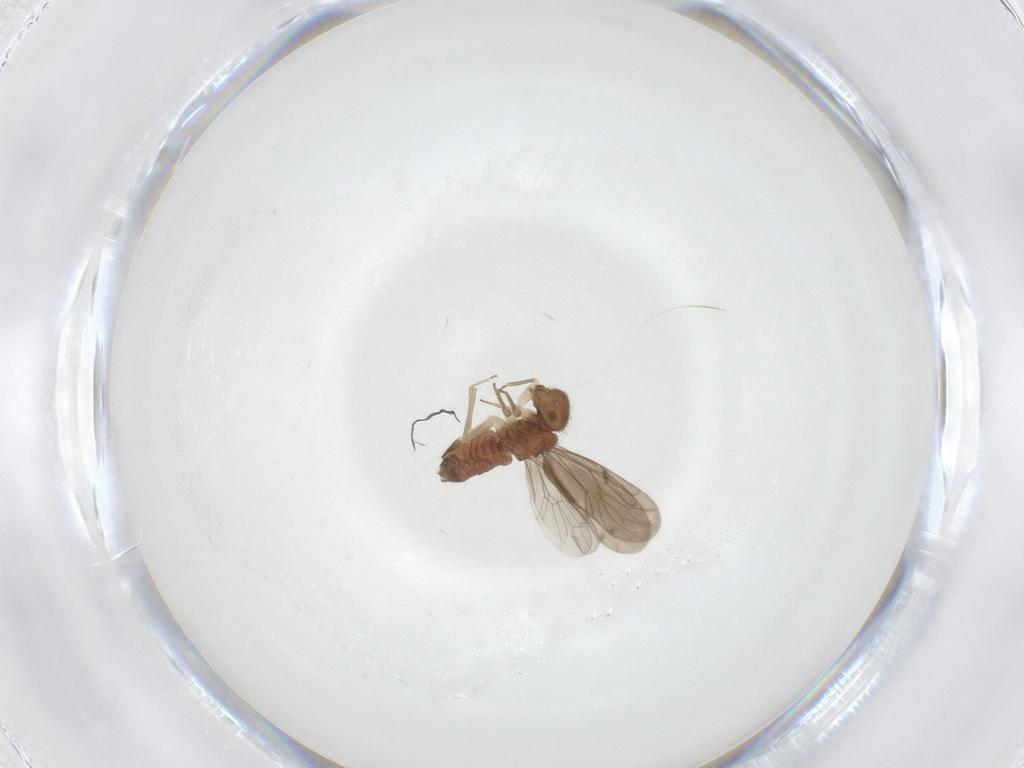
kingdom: Animalia
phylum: Arthropoda
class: Insecta
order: Psocodea
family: Ectopsocidae
